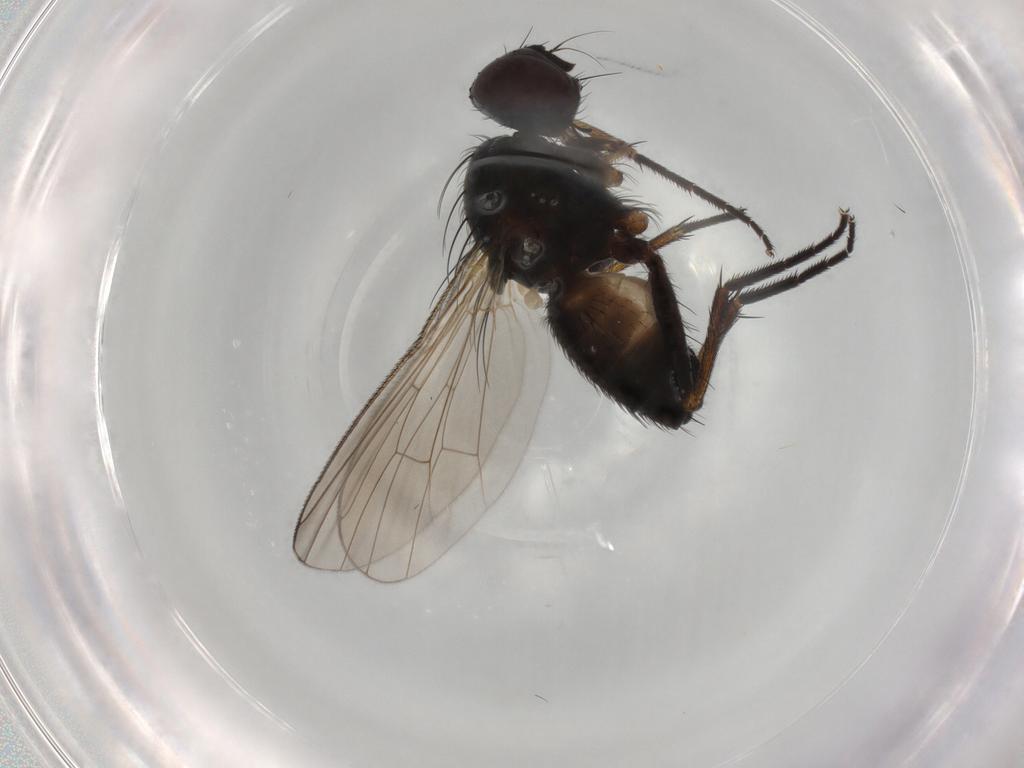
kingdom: Animalia
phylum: Arthropoda
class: Insecta
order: Diptera
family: Muscidae
